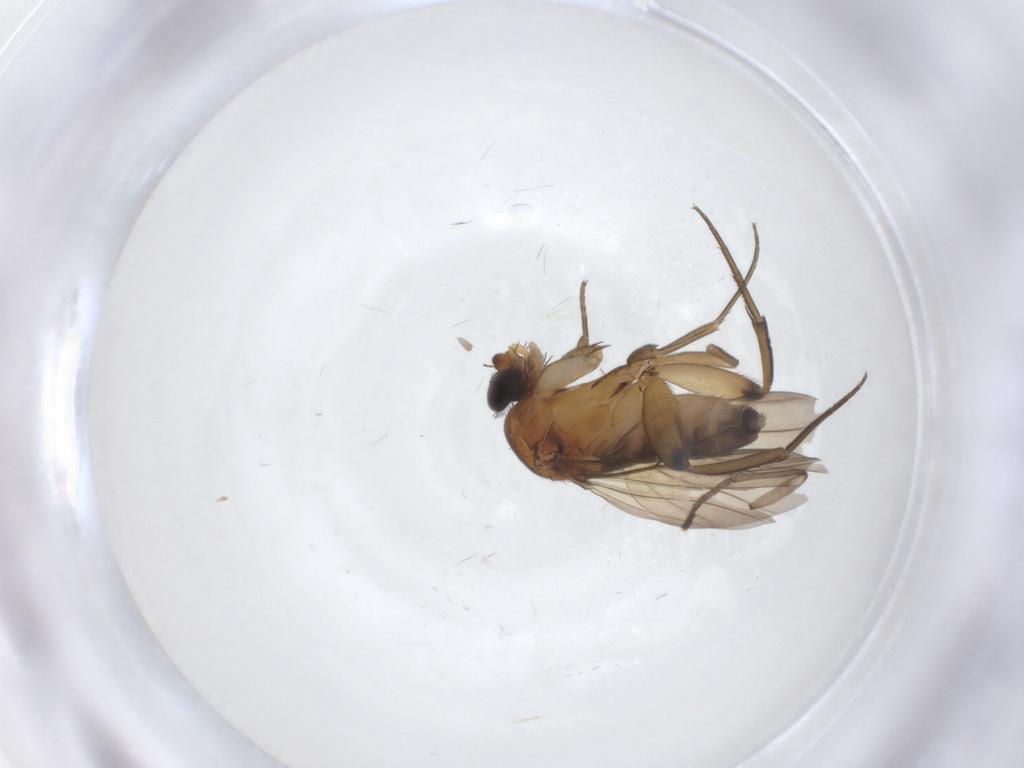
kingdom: Animalia
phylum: Arthropoda
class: Insecta
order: Diptera
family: Phoridae
